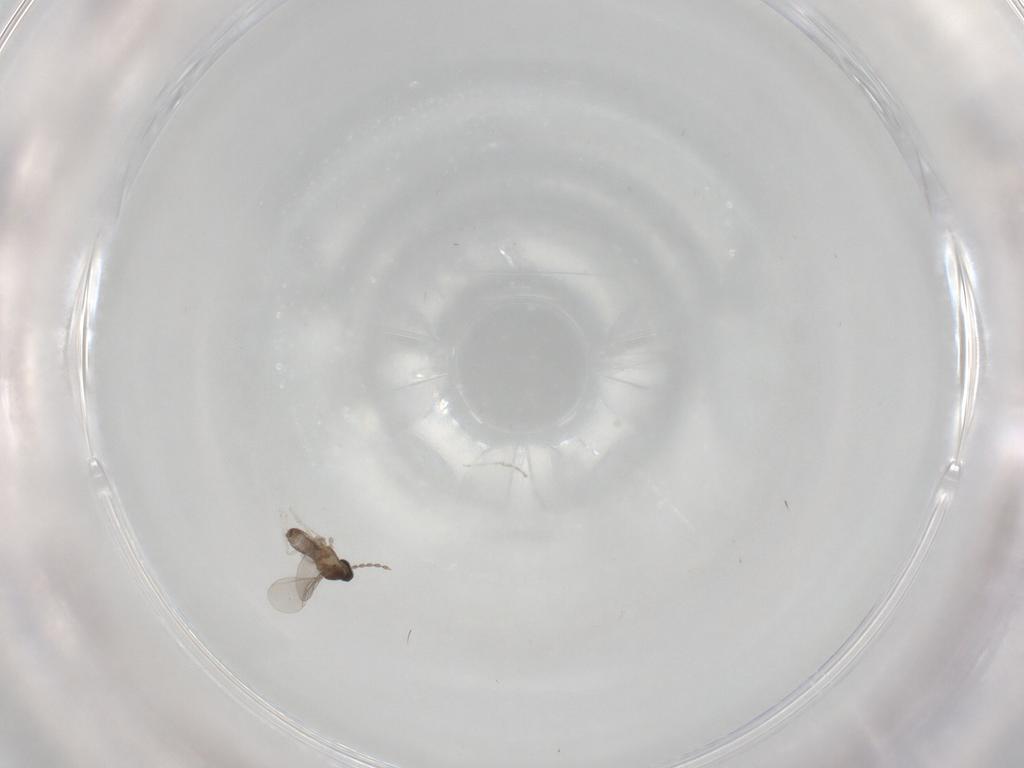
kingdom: Animalia
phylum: Arthropoda
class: Insecta
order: Diptera
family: Cecidomyiidae
